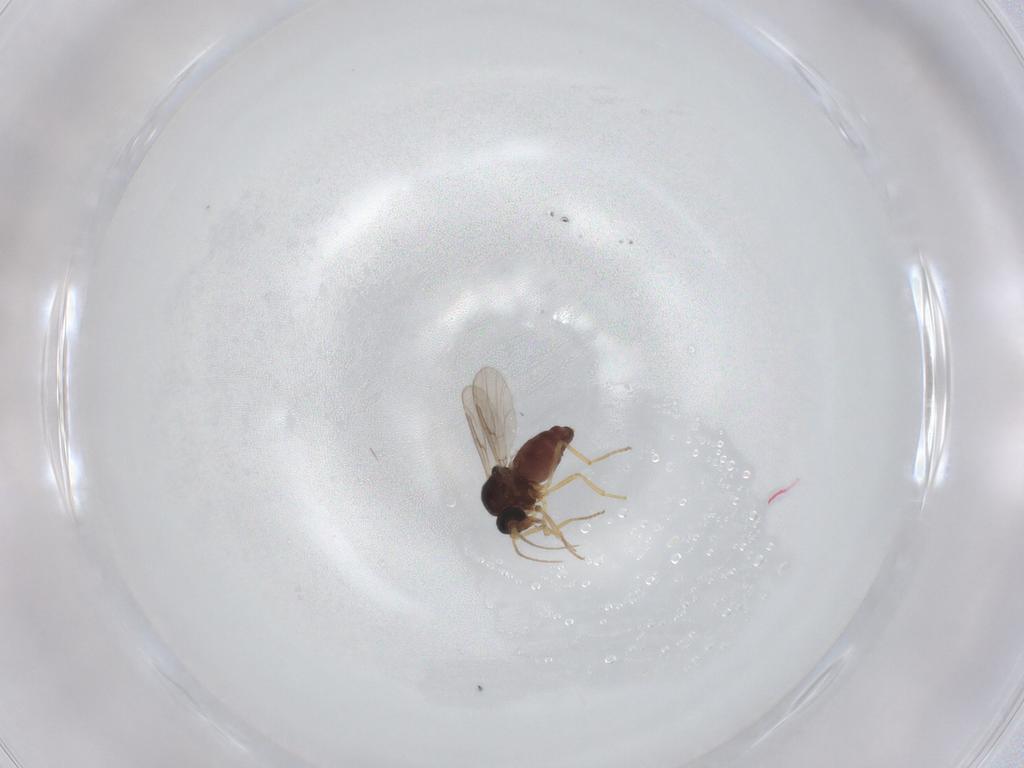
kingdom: Animalia
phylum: Arthropoda
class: Insecta
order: Diptera
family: Ceratopogonidae
